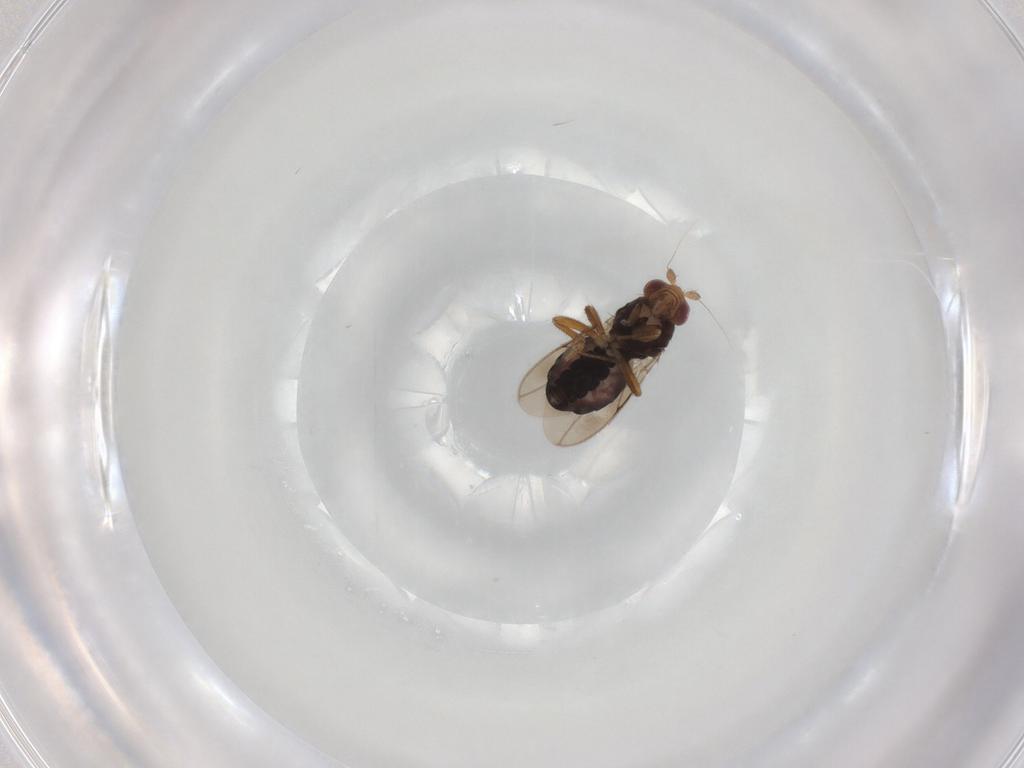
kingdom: Animalia
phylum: Arthropoda
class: Insecta
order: Diptera
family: Sphaeroceridae
